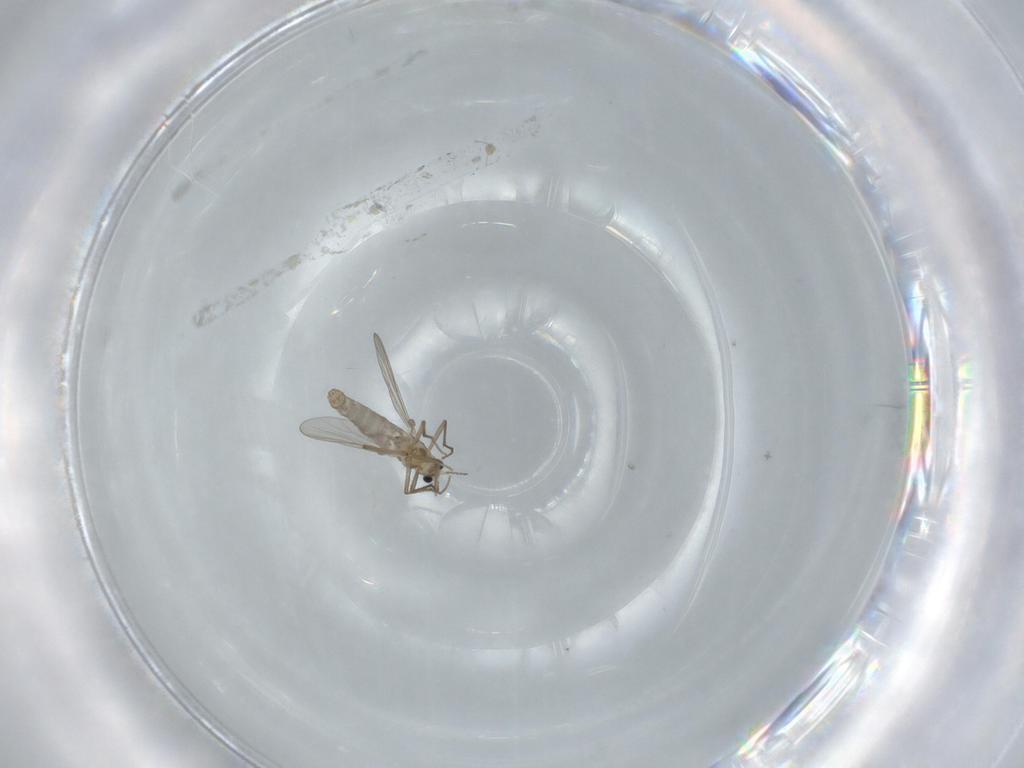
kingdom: Animalia
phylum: Arthropoda
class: Insecta
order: Diptera
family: Chironomidae
